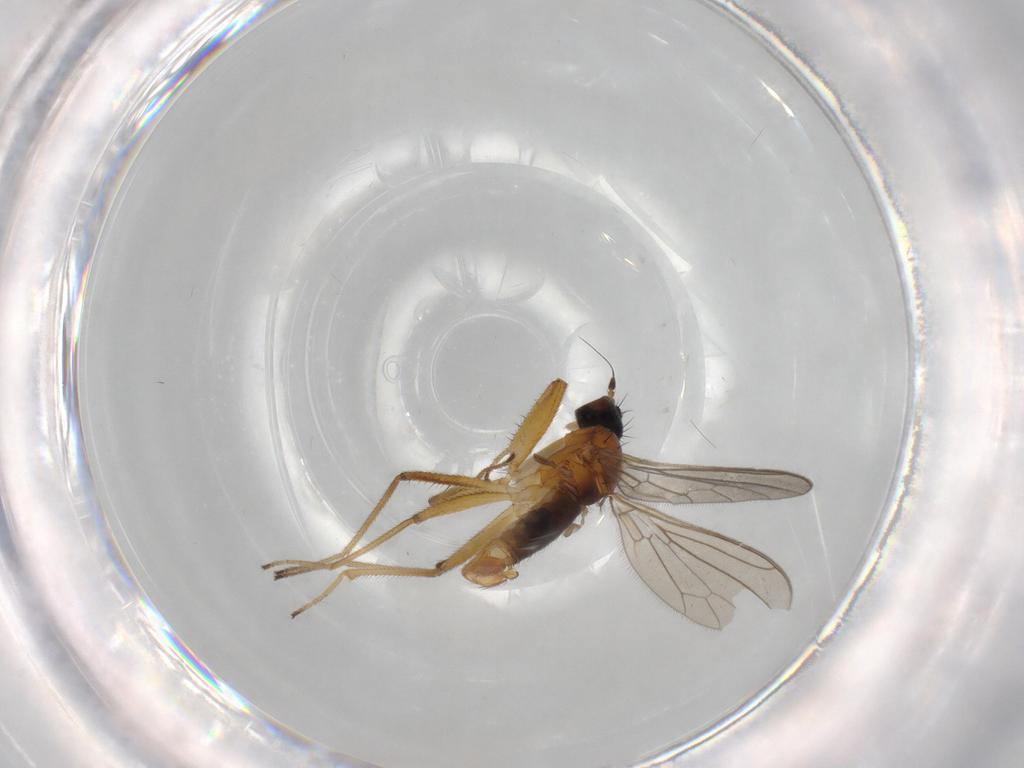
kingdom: Animalia
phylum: Arthropoda
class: Insecta
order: Diptera
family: Empididae
